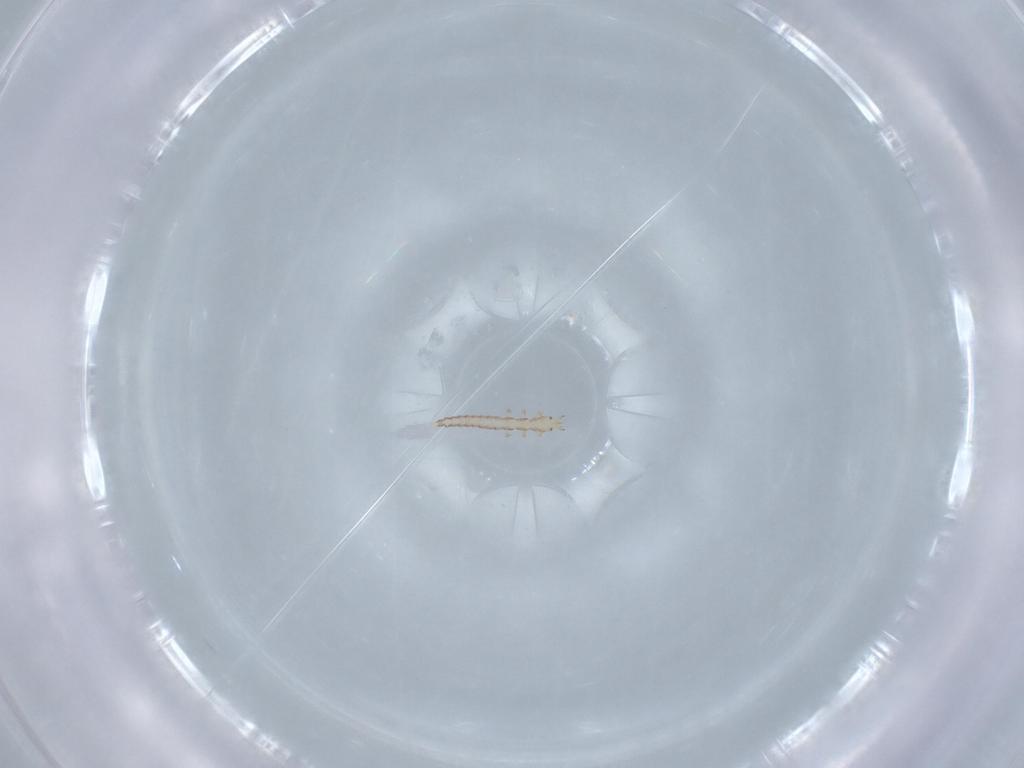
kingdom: Animalia
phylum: Arthropoda
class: Insecta
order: Neuroptera
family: Mantispidae
